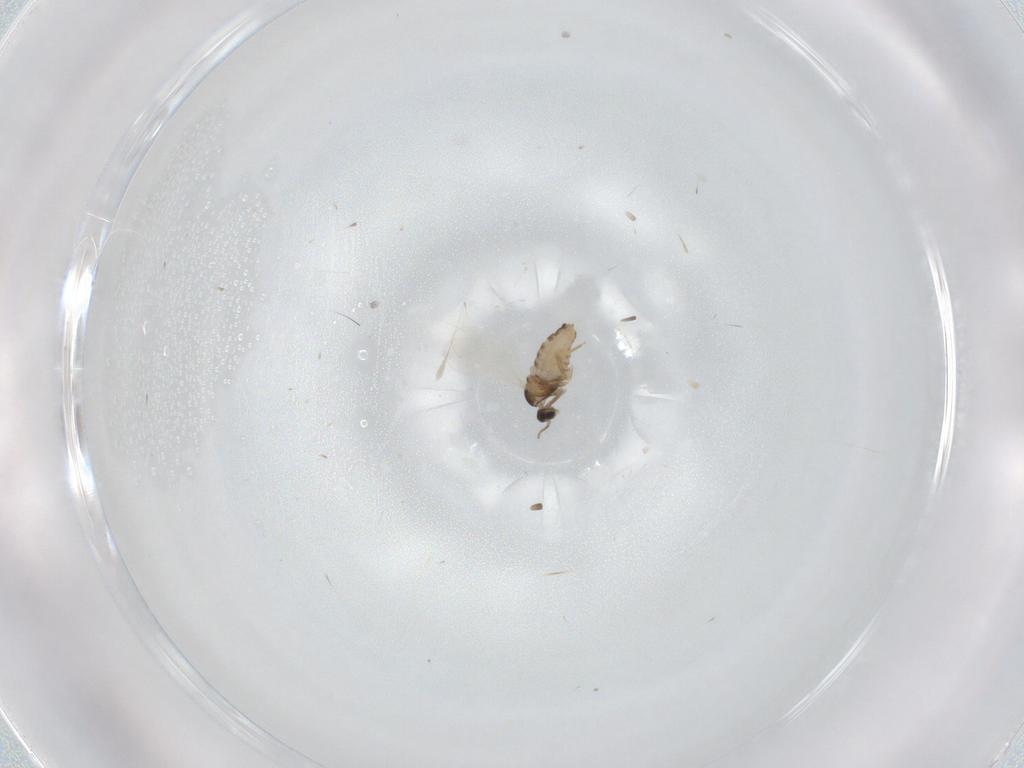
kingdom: Animalia
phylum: Arthropoda
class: Insecta
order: Diptera
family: Cecidomyiidae
